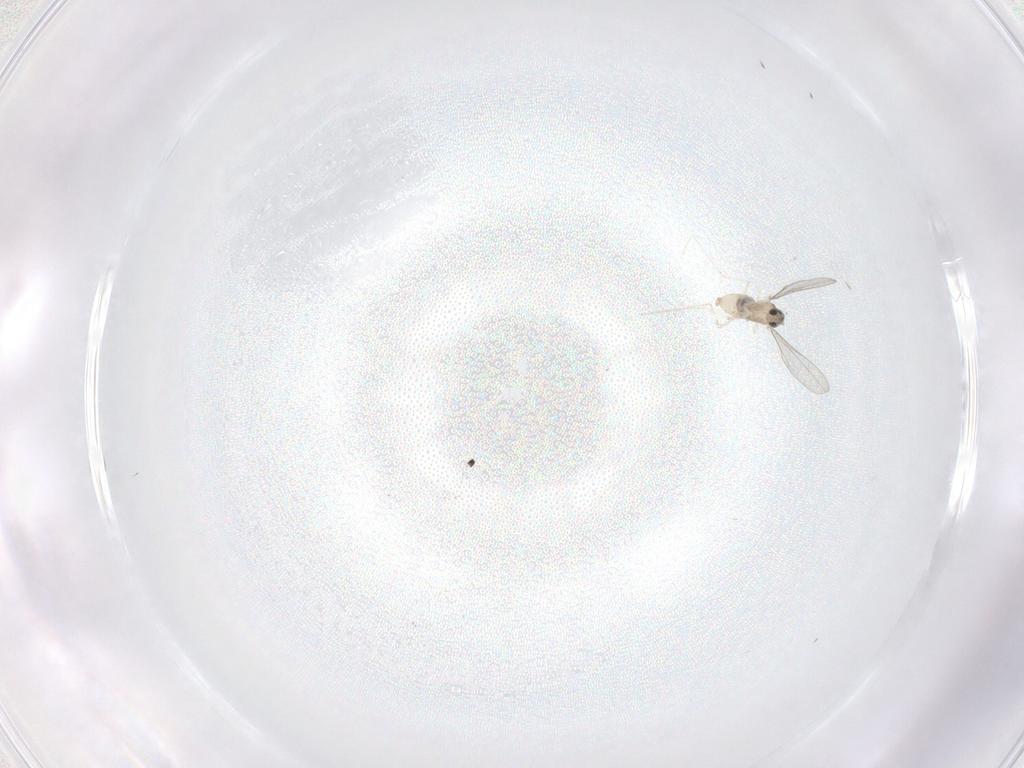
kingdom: Animalia
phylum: Arthropoda
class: Insecta
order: Diptera
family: Cecidomyiidae
